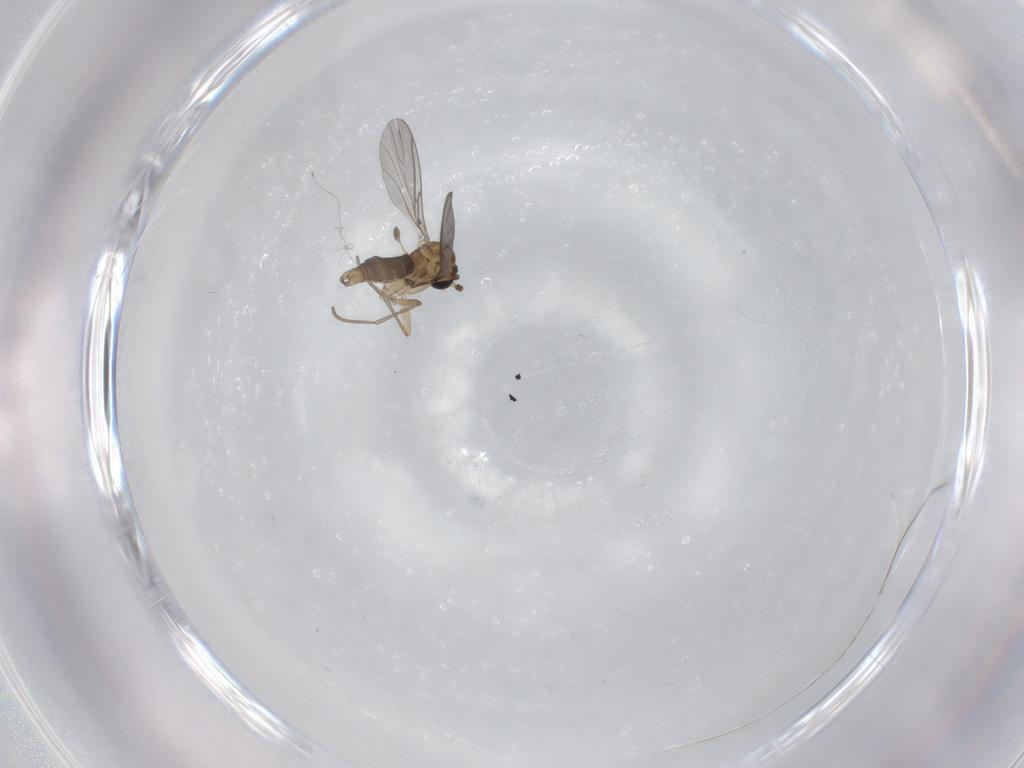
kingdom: Animalia
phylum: Arthropoda
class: Insecta
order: Diptera
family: Sciaridae
